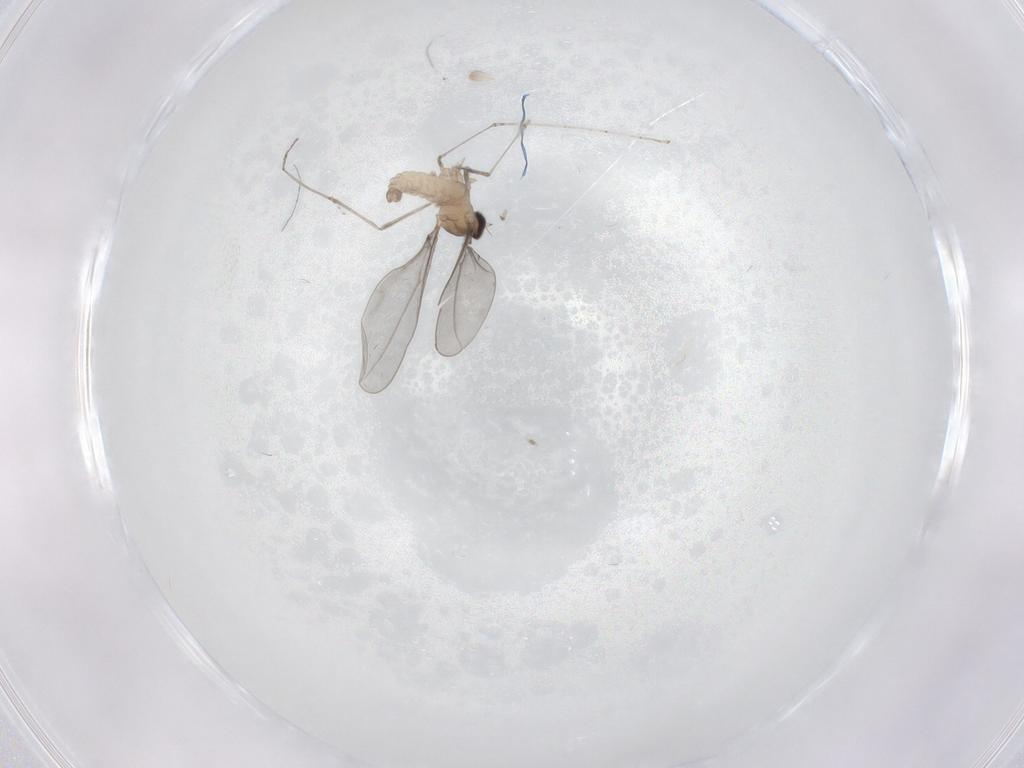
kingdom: Animalia
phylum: Arthropoda
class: Insecta
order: Diptera
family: Cecidomyiidae
